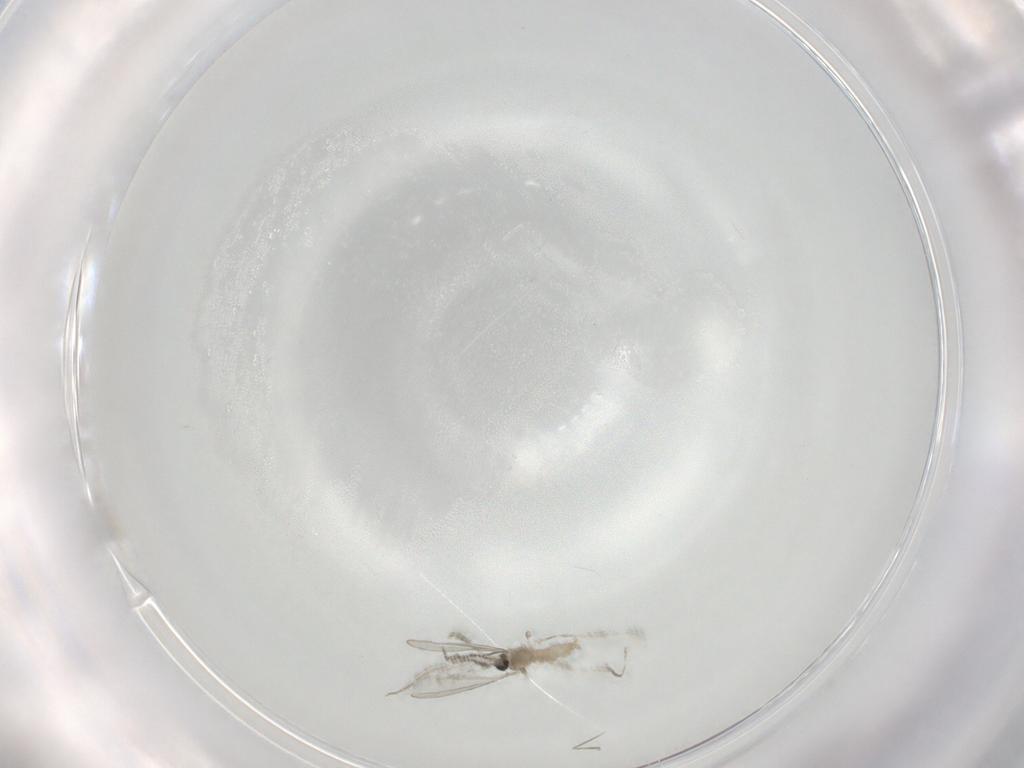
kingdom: Animalia
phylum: Arthropoda
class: Insecta
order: Diptera
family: Cecidomyiidae
